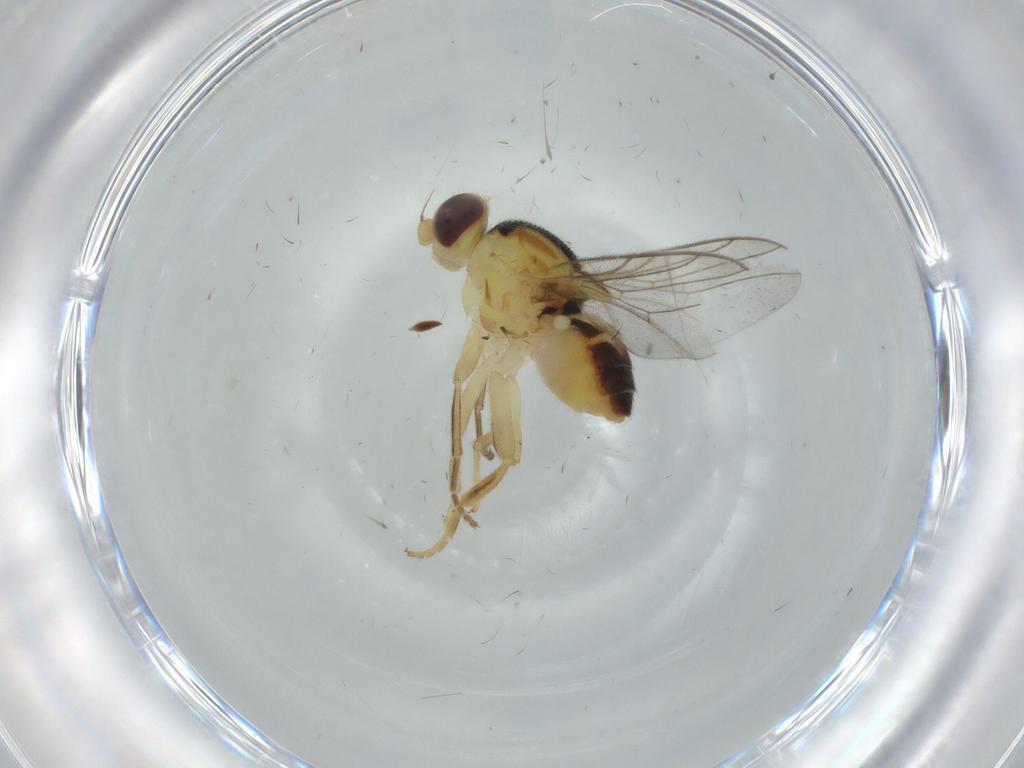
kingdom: Animalia
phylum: Arthropoda
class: Insecta
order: Diptera
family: Chloropidae
